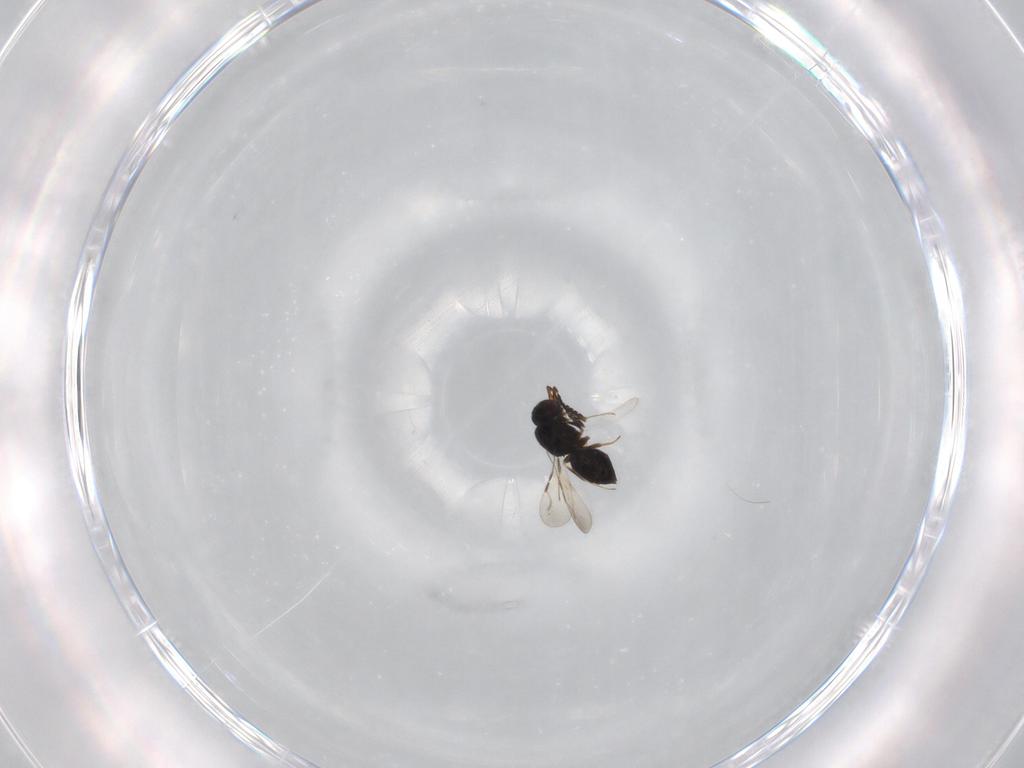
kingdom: Animalia
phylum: Arthropoda
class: Insecta
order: Hymenoptera
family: Ceraphronidae
